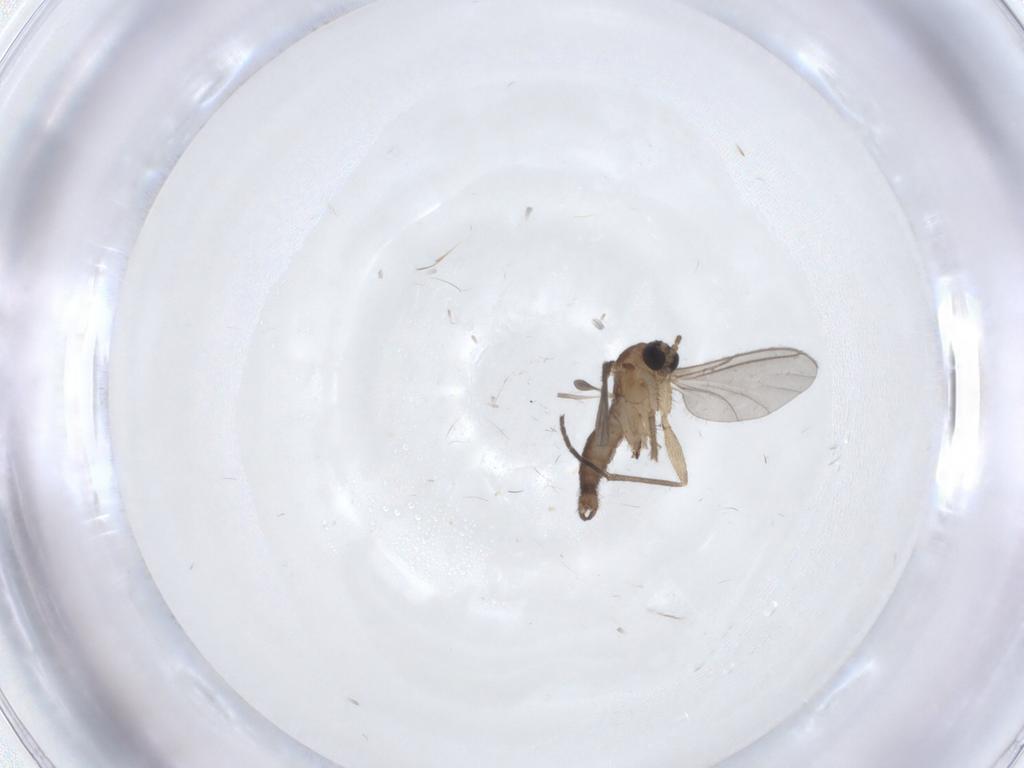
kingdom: Animalia
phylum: Arthropoda
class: Insecta
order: Diptera
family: Sciaridae
